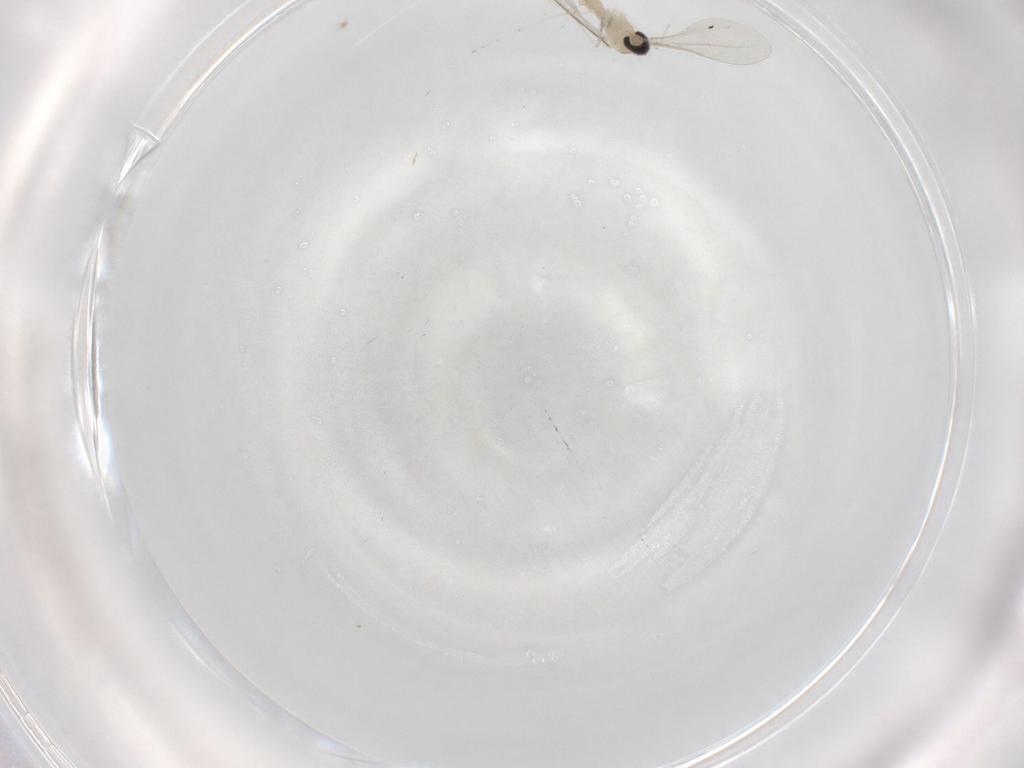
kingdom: Animalia
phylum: Arthropoda
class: Insecta
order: Diptera
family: Cecidomyiidae
